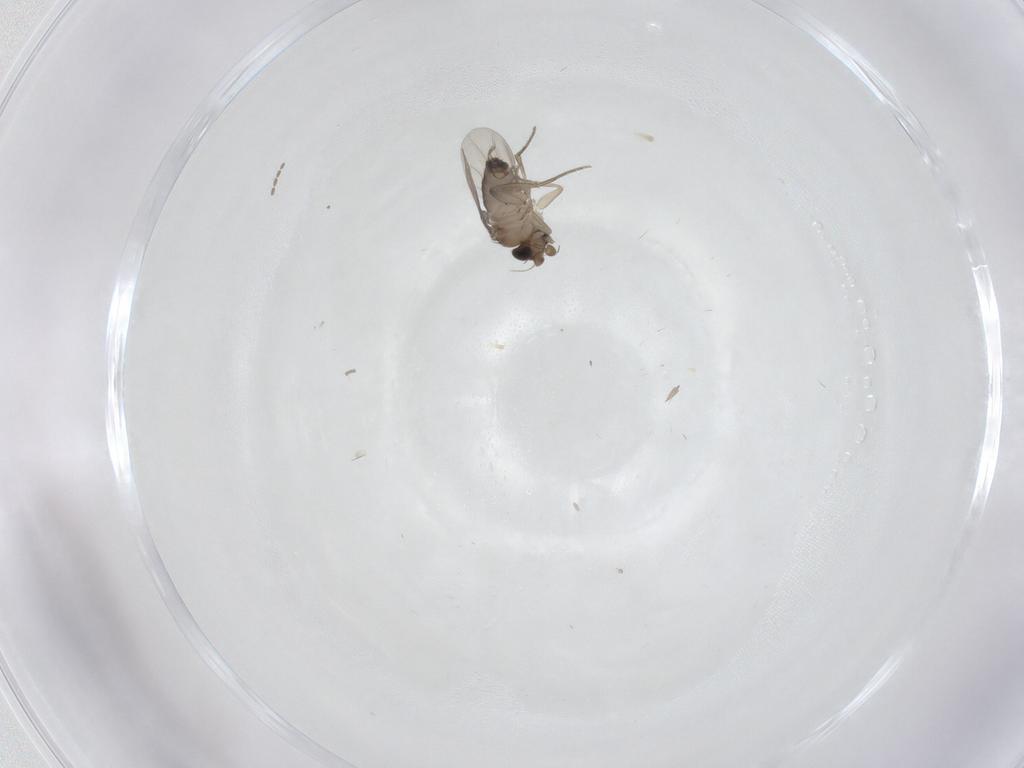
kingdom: Animalia
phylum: Arthropoda
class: Insecta
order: Diptera
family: Phoridae
